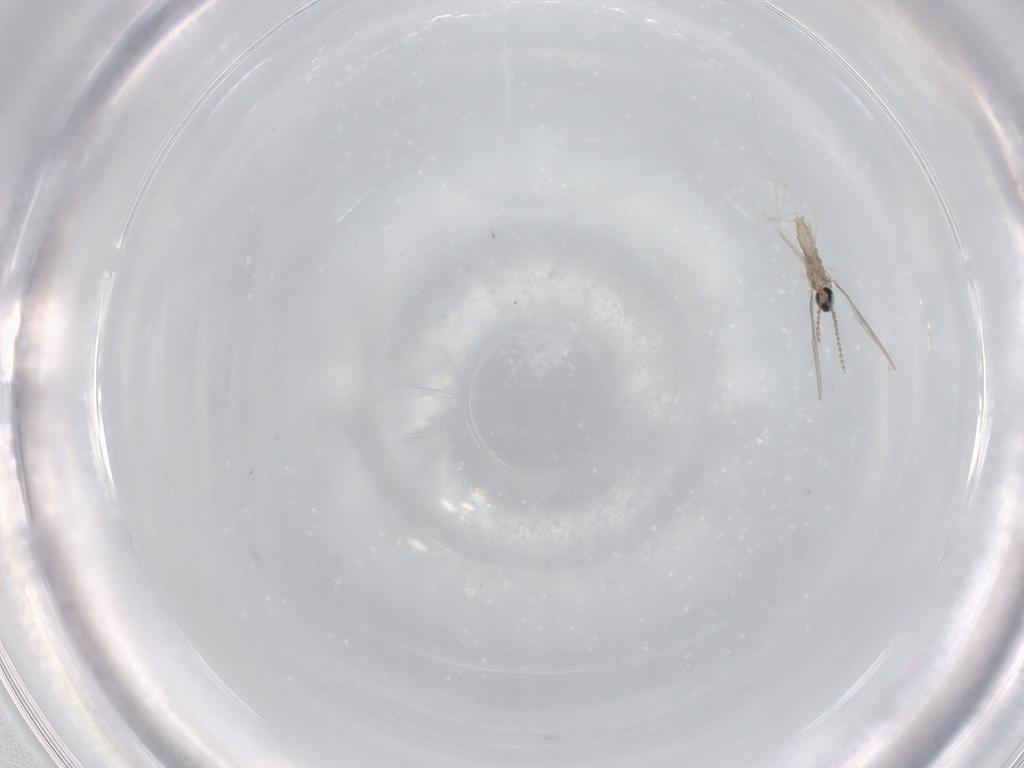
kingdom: Animalia
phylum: Arthropoda
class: Insecta
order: Diptera
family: Cecidomyiidae
